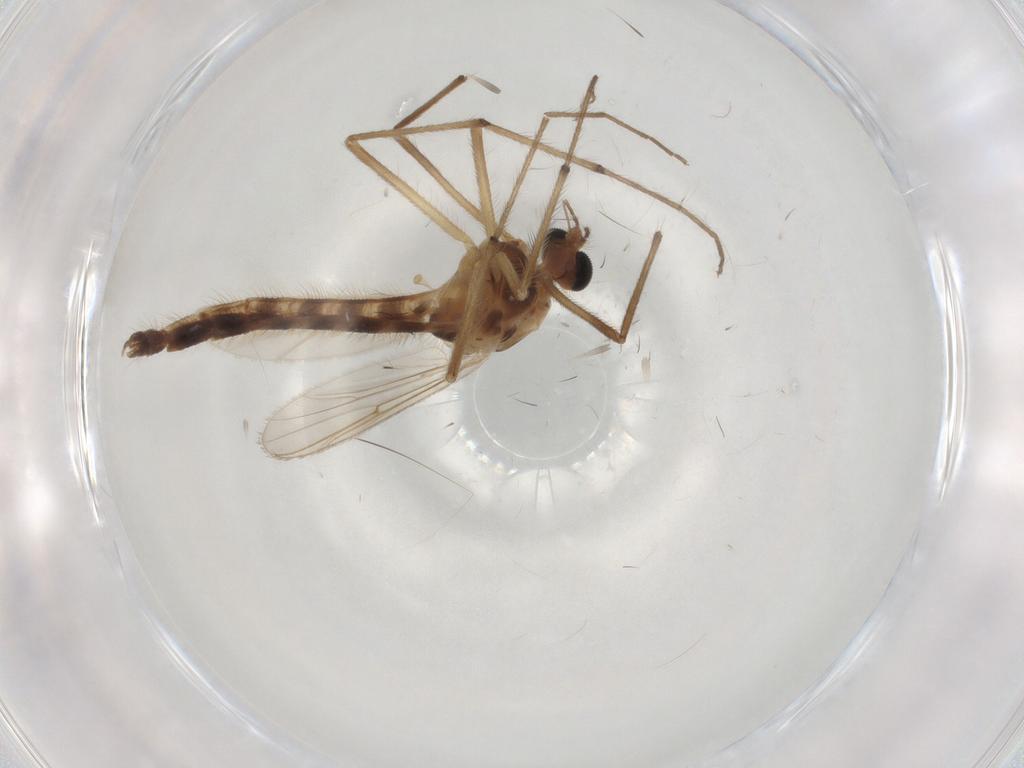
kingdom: Animalia
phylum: Arthropoda
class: Insecta
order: Diptera
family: Chironomidae
